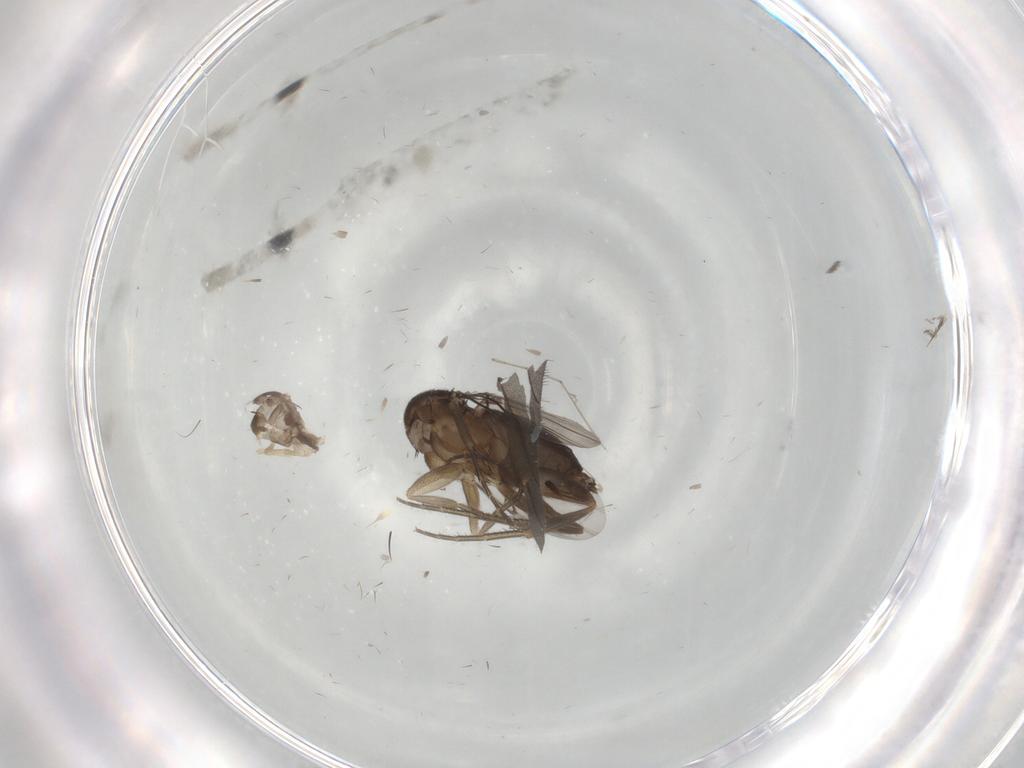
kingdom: Animalia
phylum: Arthropoda
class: Insecta
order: Diptera
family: Phoridae
